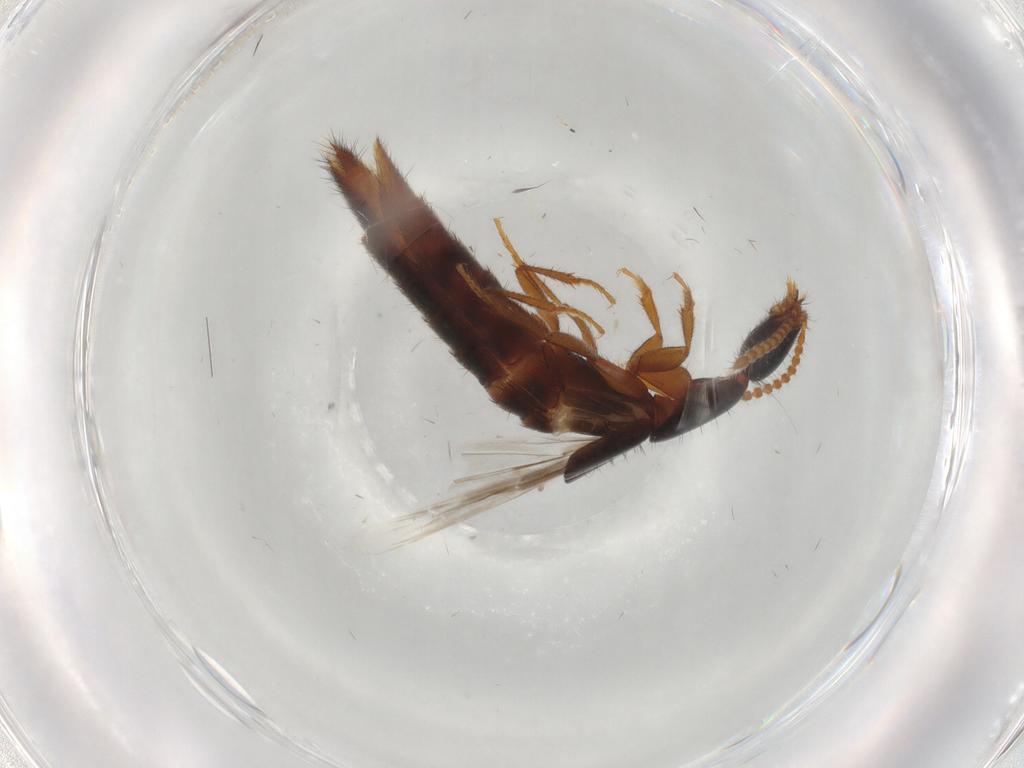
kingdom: Animalia
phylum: Arthropoda
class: Insecta
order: Coleoptera
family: Staphylinidae
